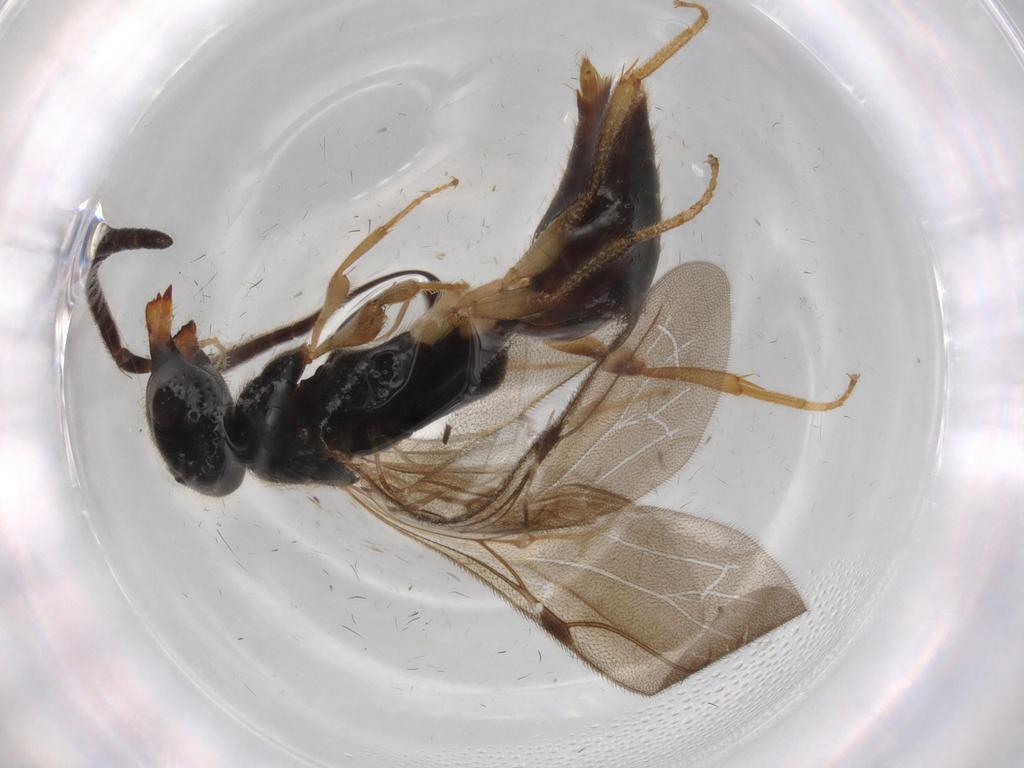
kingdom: Animalia
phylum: Arthropoda
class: Insecta
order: Hymenoptera
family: Bethylidae
